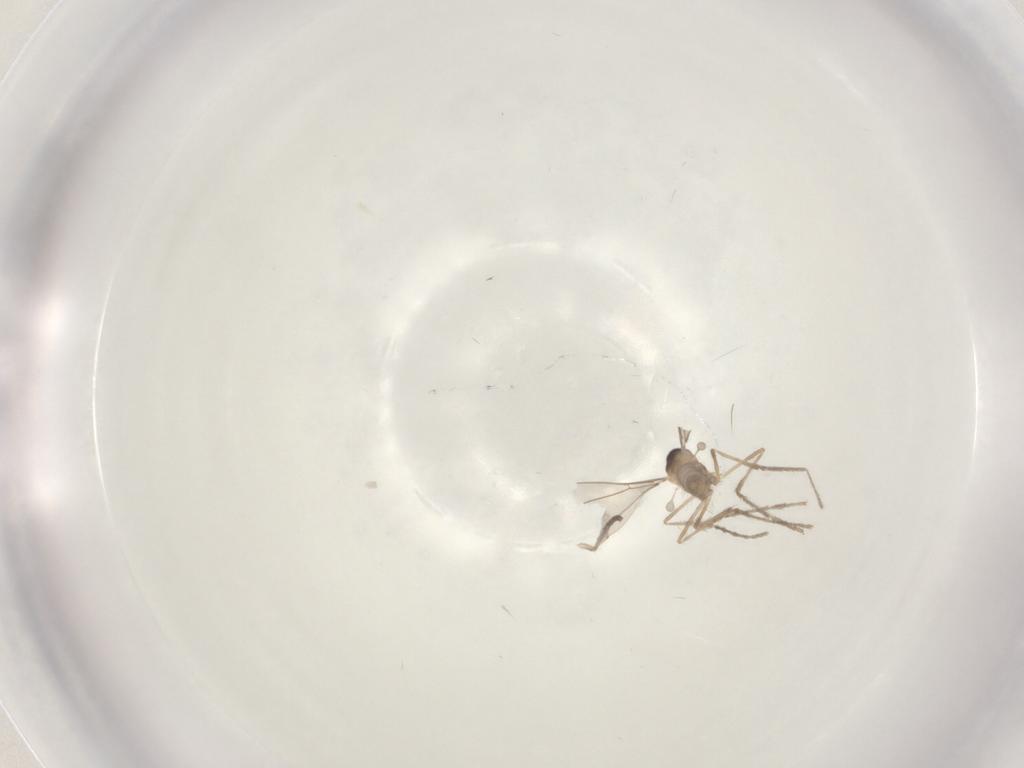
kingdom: Animalia
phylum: Arthropoda
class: Insecta
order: Diptera
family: Psychodidae
